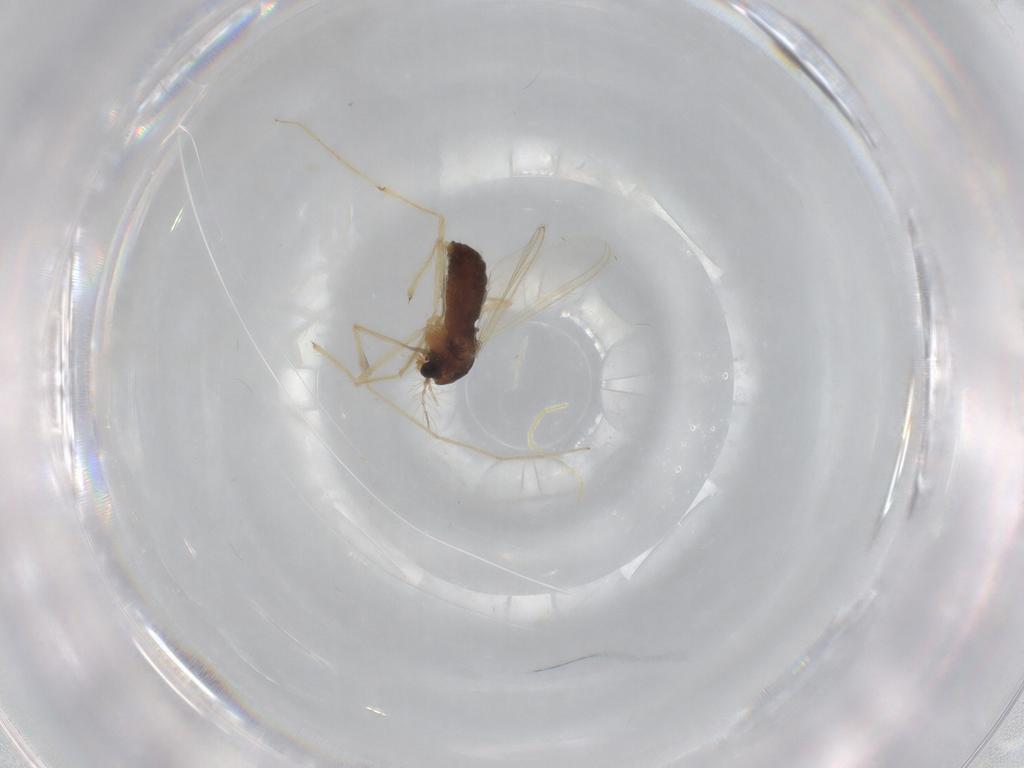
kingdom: Animalia
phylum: Arthropoda
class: Insecta
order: Diptera
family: Chironomidae
